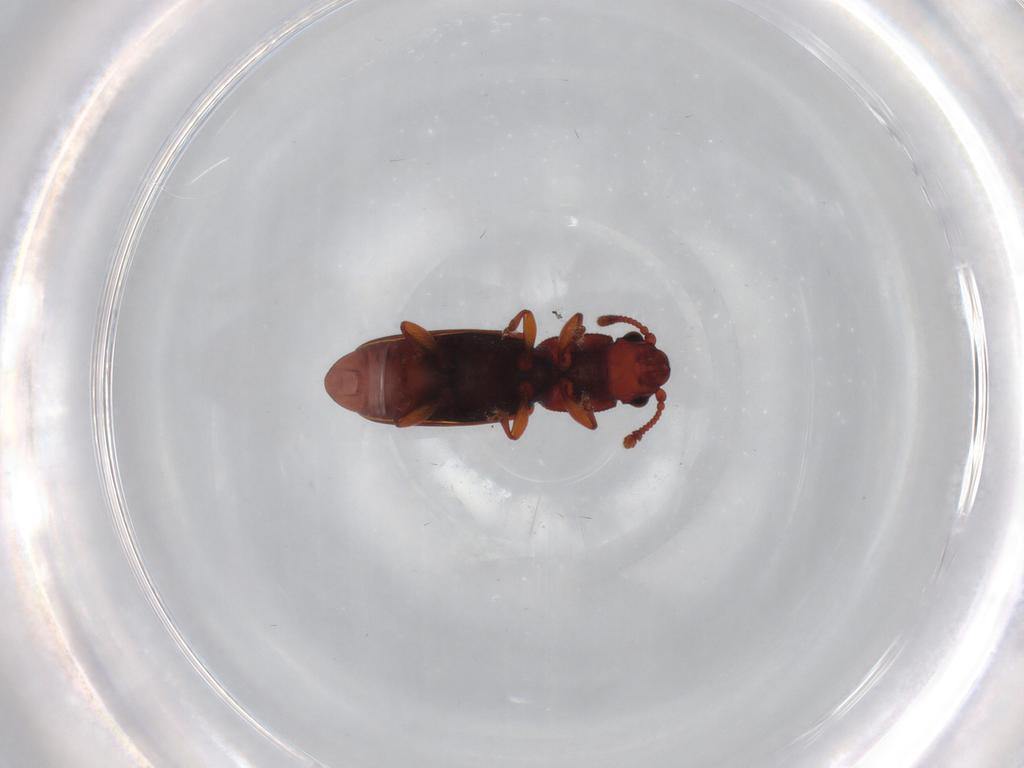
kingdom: Animalia
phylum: Arthropoda
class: Insecta
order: Coleoptera
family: Monotomidae
